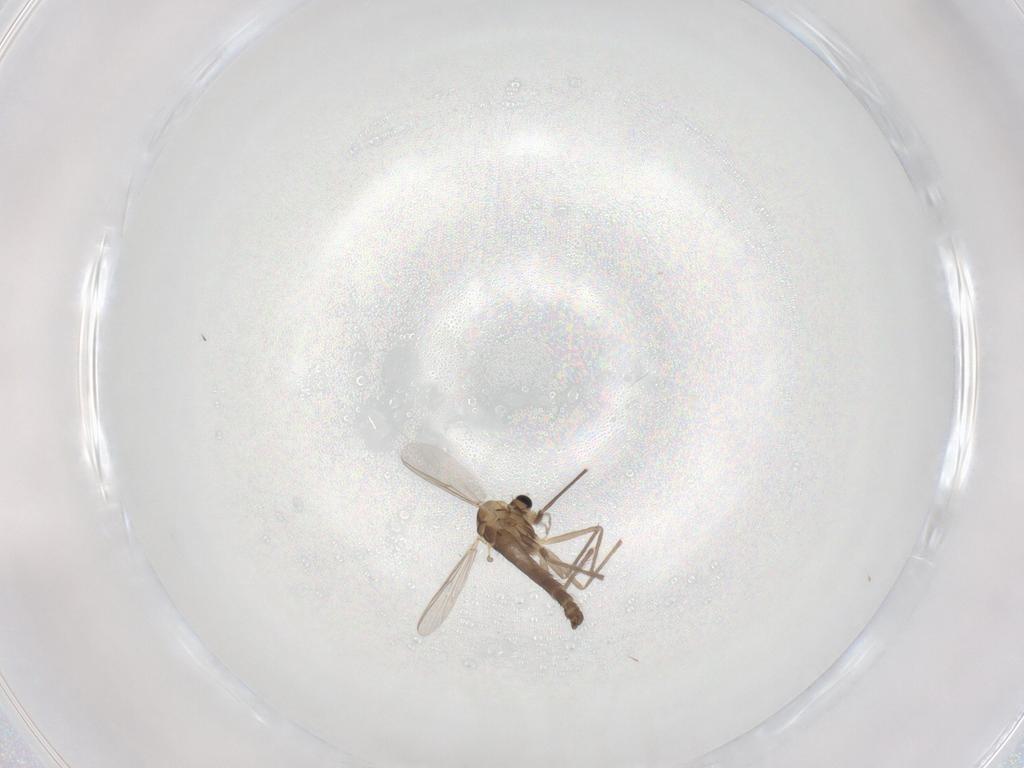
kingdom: Animalia
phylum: Arthropoda
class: Insecta
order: Diptera
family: Chironomidae
